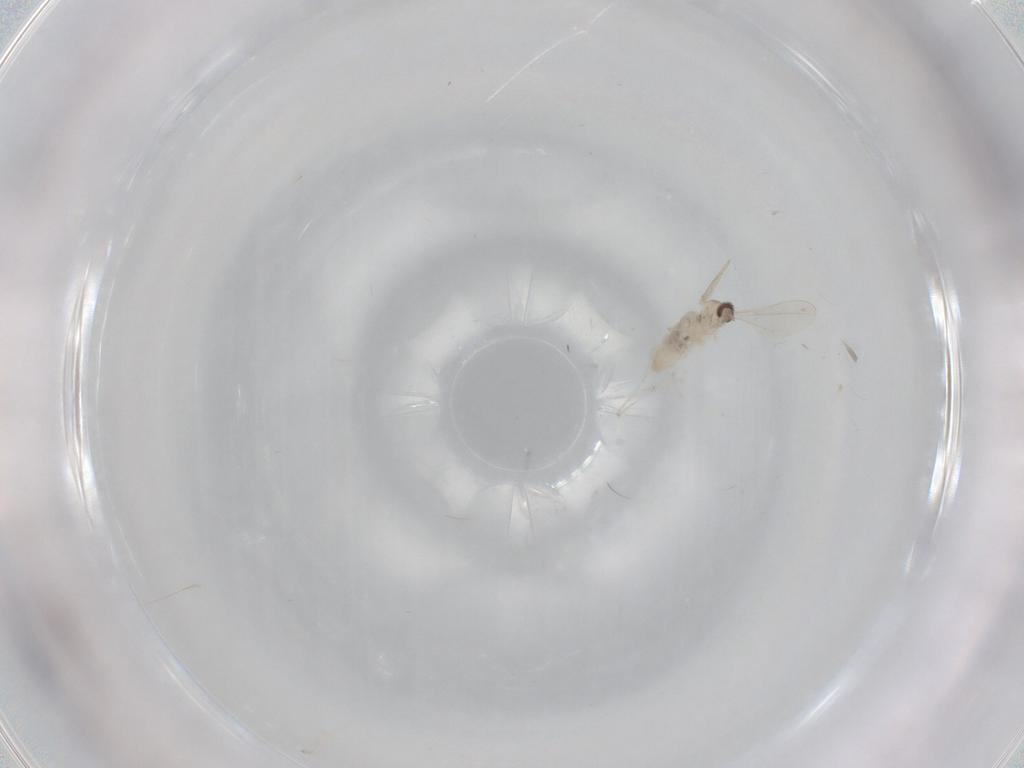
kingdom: Animalia
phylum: Arthropoda
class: Insecta
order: Diptera
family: Cecidomyiidae
